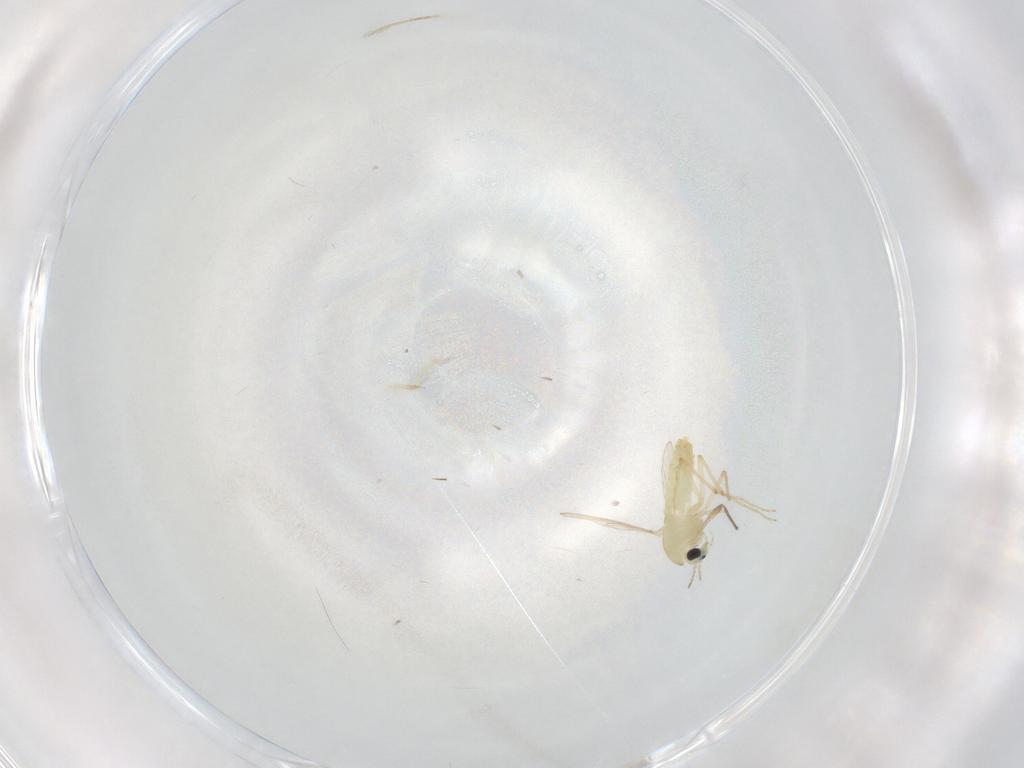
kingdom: Animalia
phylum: Arthropoda
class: Insecta
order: Diptera
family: Chironomidae
